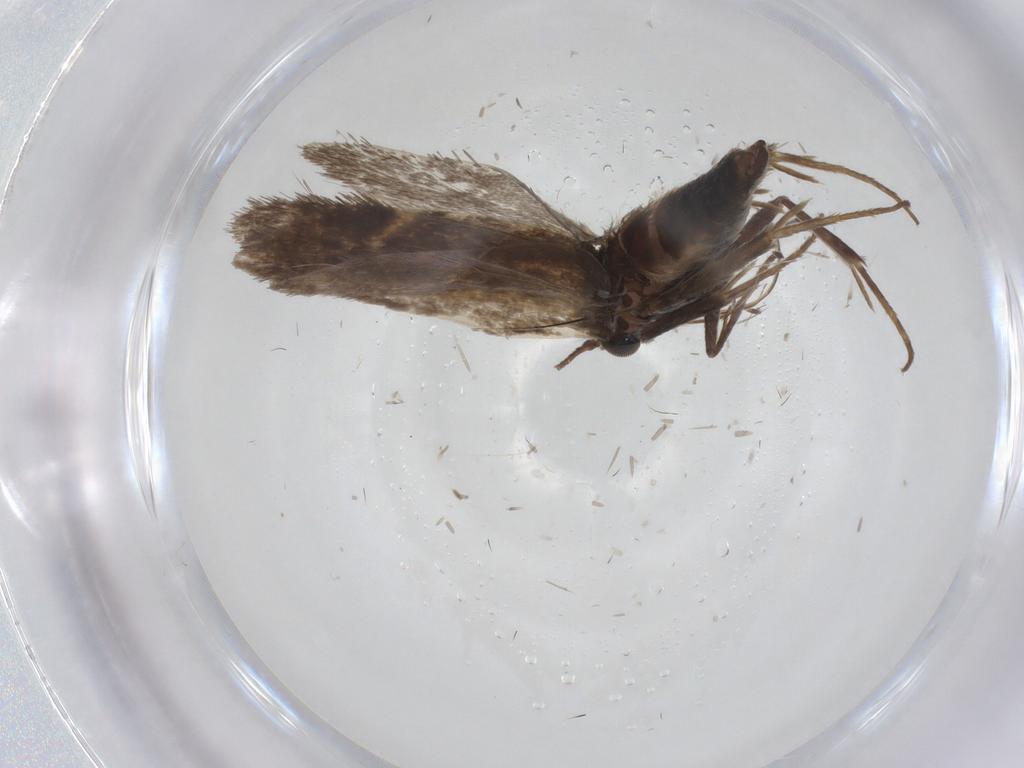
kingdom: Animalia
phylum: Arthropoda
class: Insecta
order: Lepidoptera
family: Adelidae
